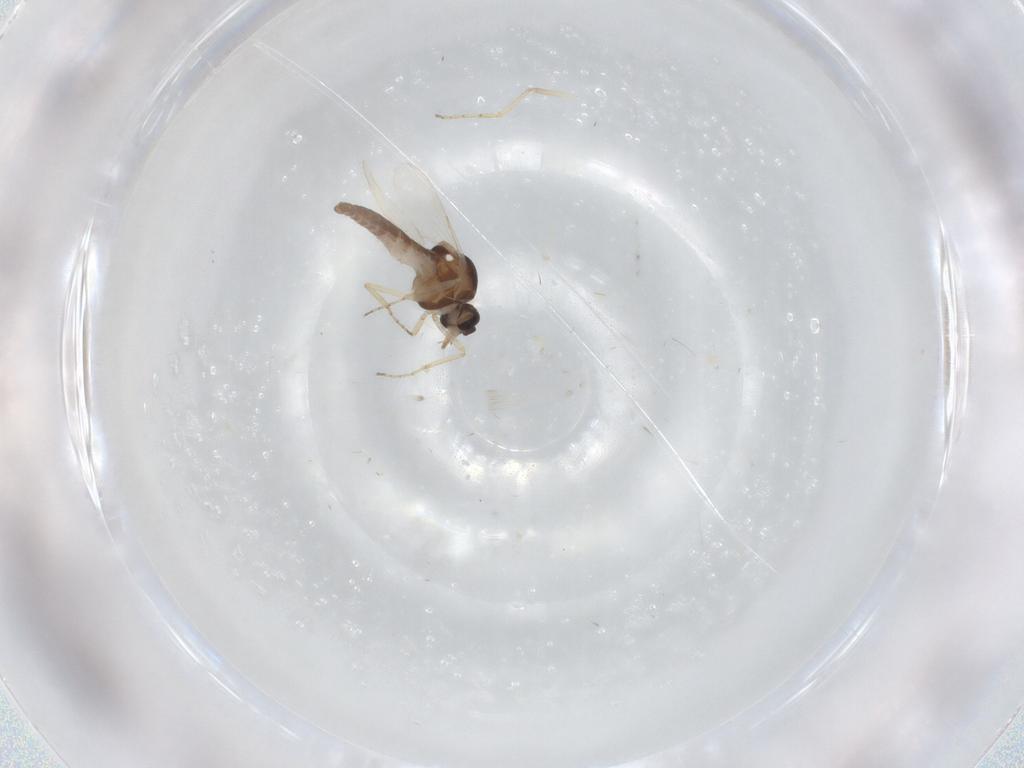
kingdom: Animalia
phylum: Arthropoda
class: Insecta
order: Diptera
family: Ceratopogonidae
